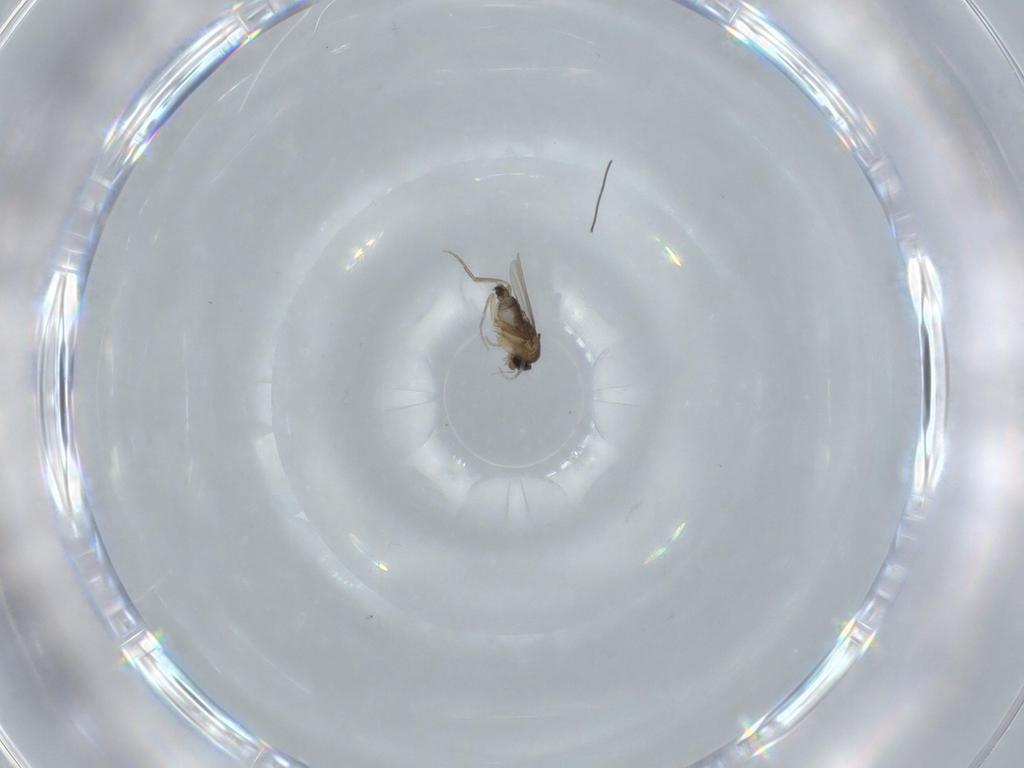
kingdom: Animalia
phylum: Arthropoda
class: Insecta
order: Diptera
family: Phoridae
